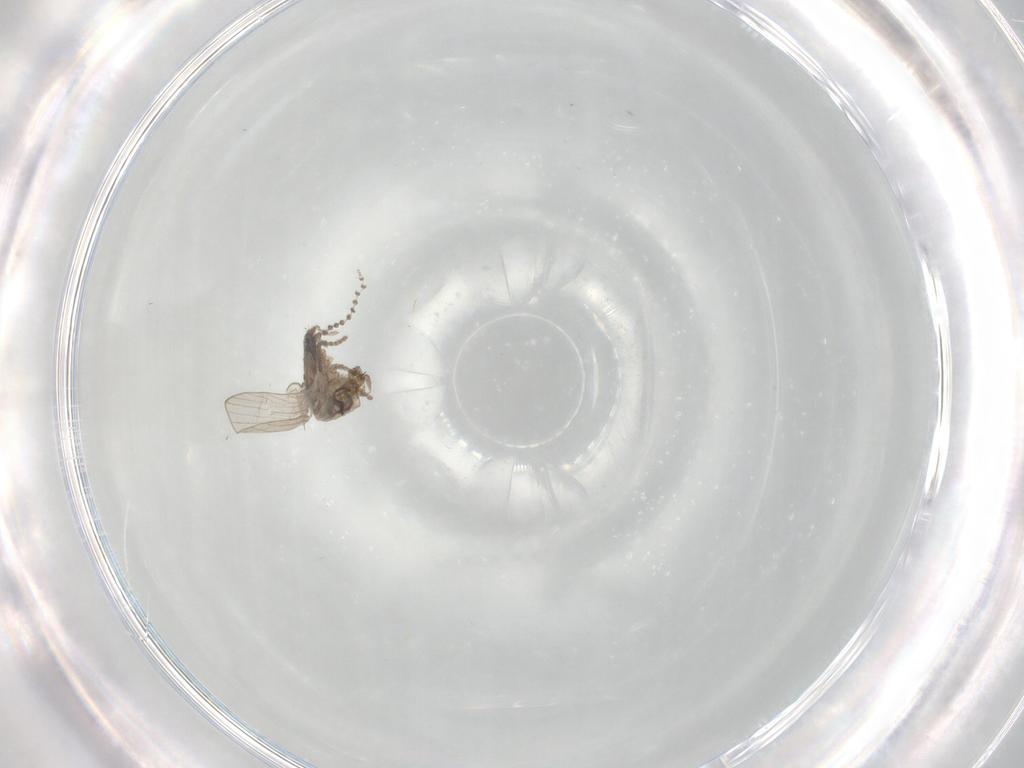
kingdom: Animalia
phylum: Arthropoda
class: Insecta
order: Diptera
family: Psychodidae
